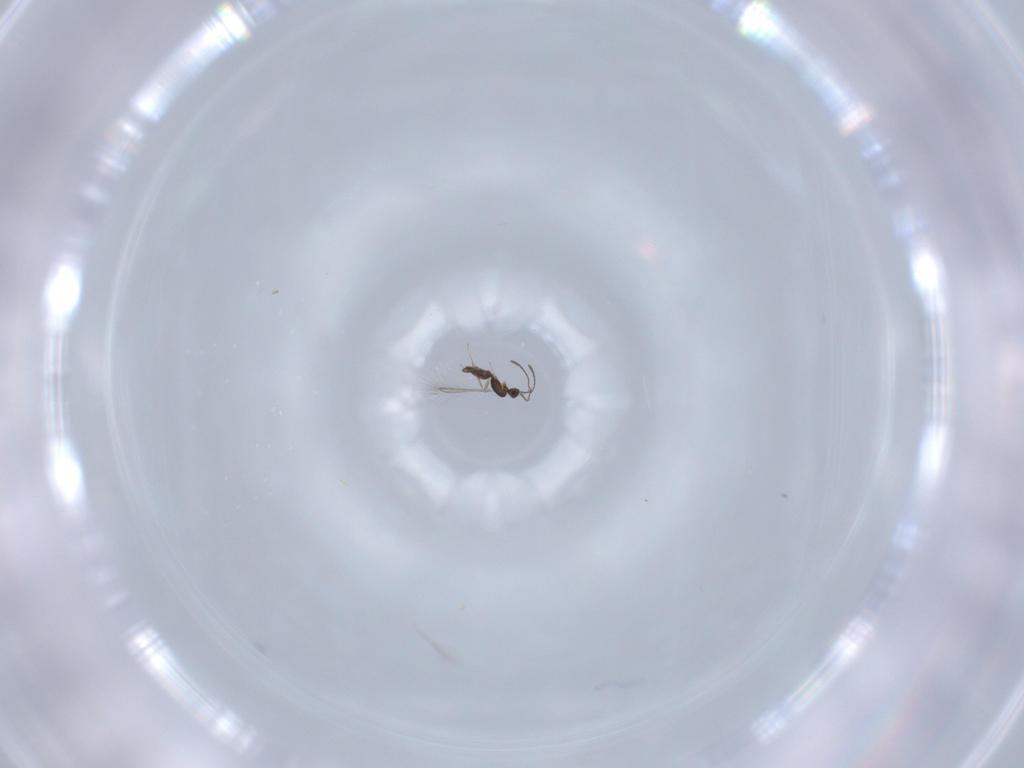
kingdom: Animalia
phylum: Arthropoda
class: Insecta
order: Hymenoptera
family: Mymaridae
